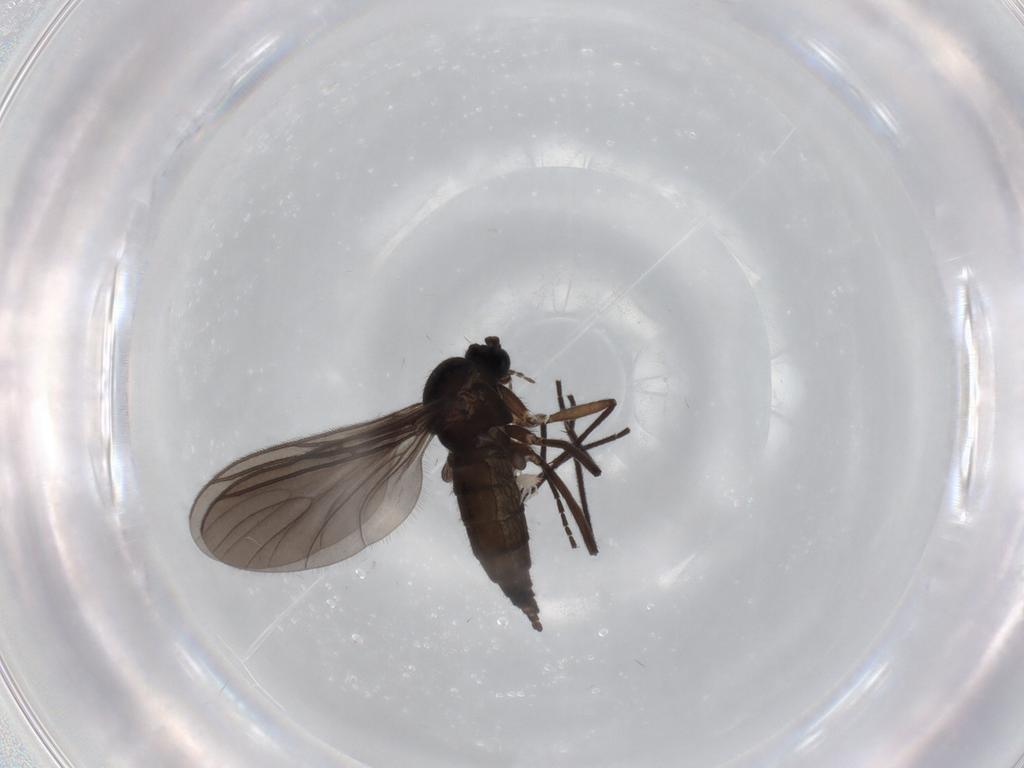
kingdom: Animalia
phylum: Arthropoda
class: Insecta
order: Diptera
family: Sciaridae
